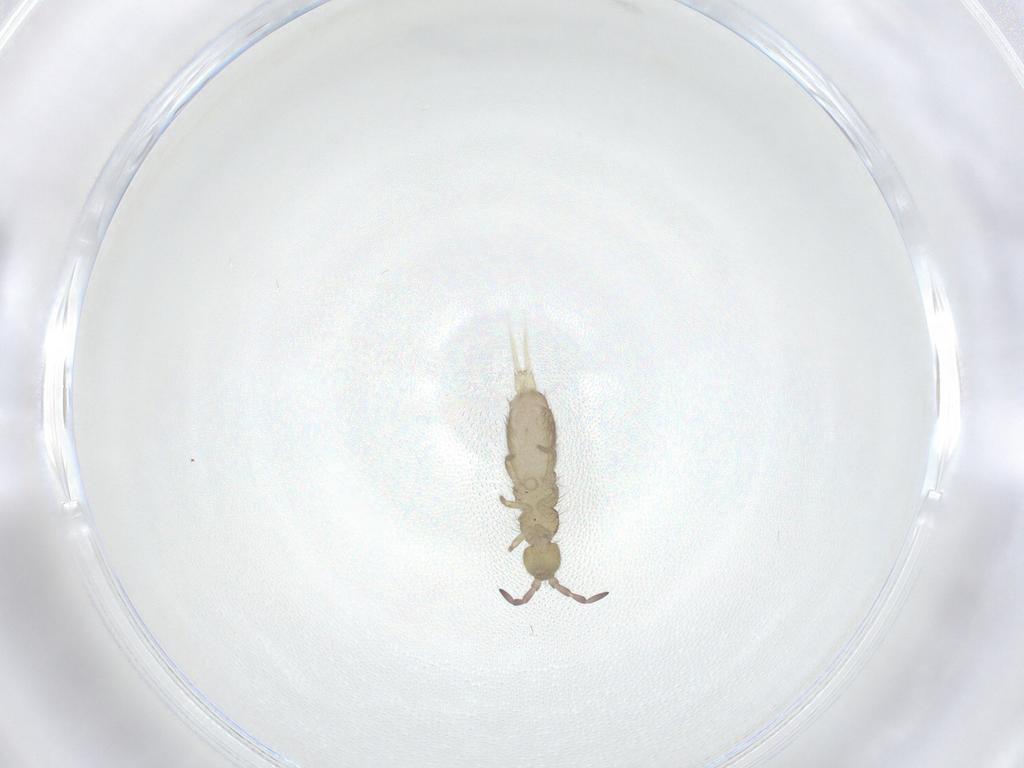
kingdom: Animalia
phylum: Arthropoda
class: Collembola
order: Entomobryomorpha
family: Isotomidae
